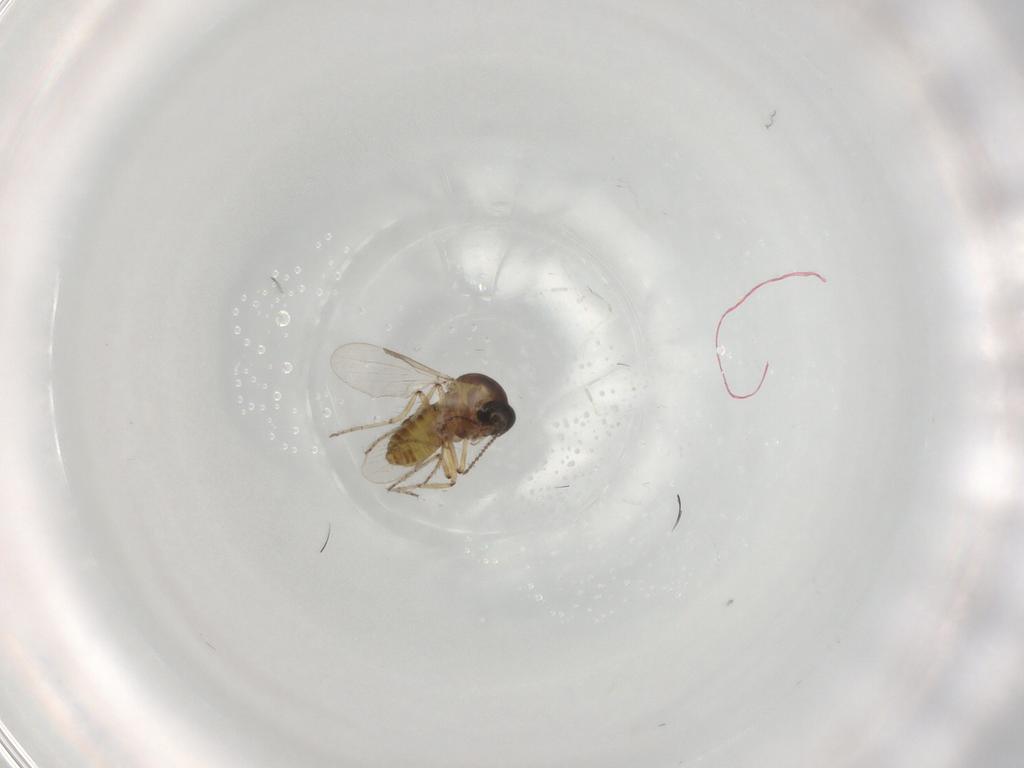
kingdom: Animalia
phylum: Arthropoda
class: Insecta
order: Diptera
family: Ceratopogonidae
